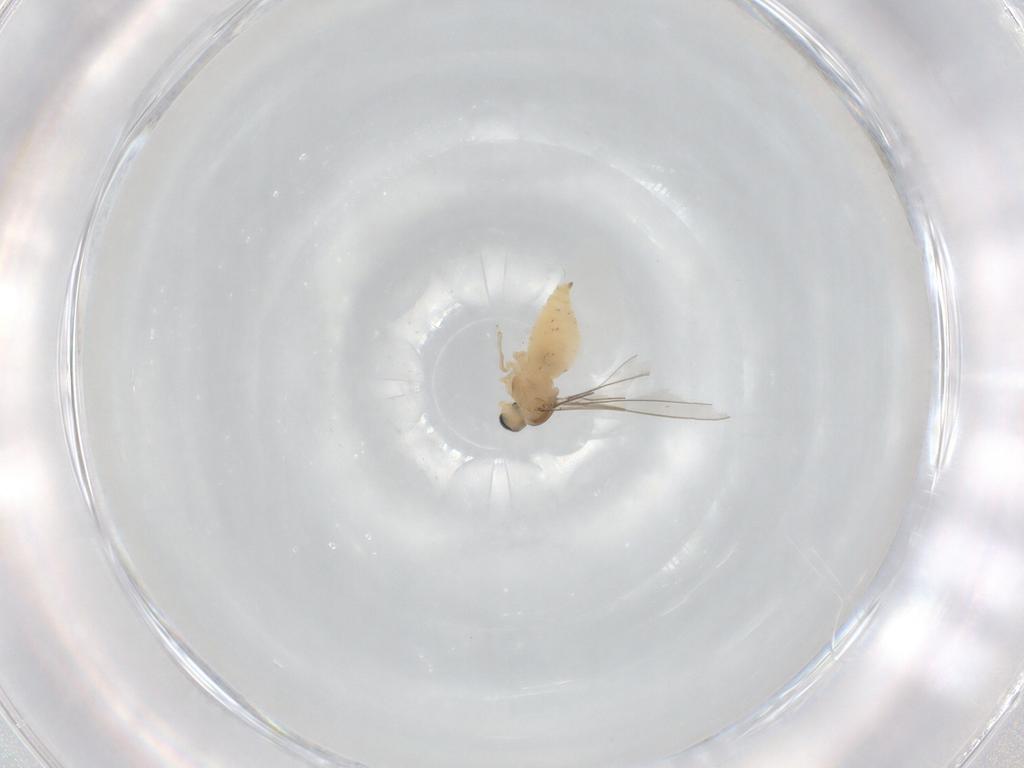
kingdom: Animalia
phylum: Arthropoda
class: Insecta
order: Diptera
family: Cecidomyiidae
